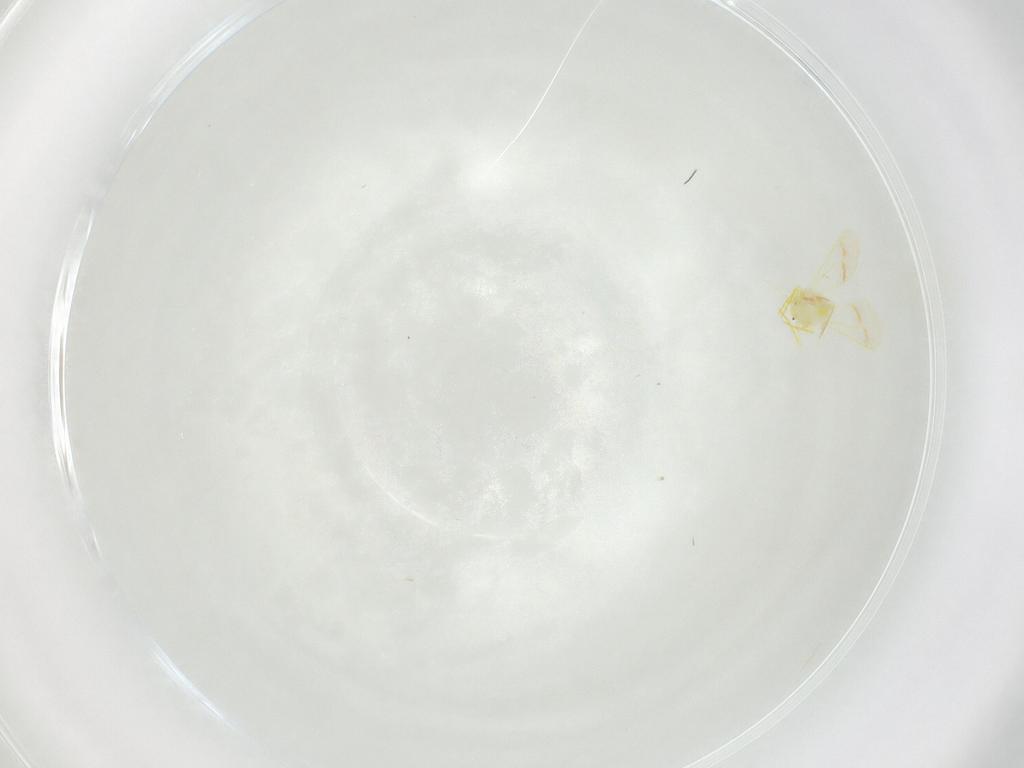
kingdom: Animalia
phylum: Arthropoda
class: Insecta
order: Hemiptera
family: Aleyrodidae
